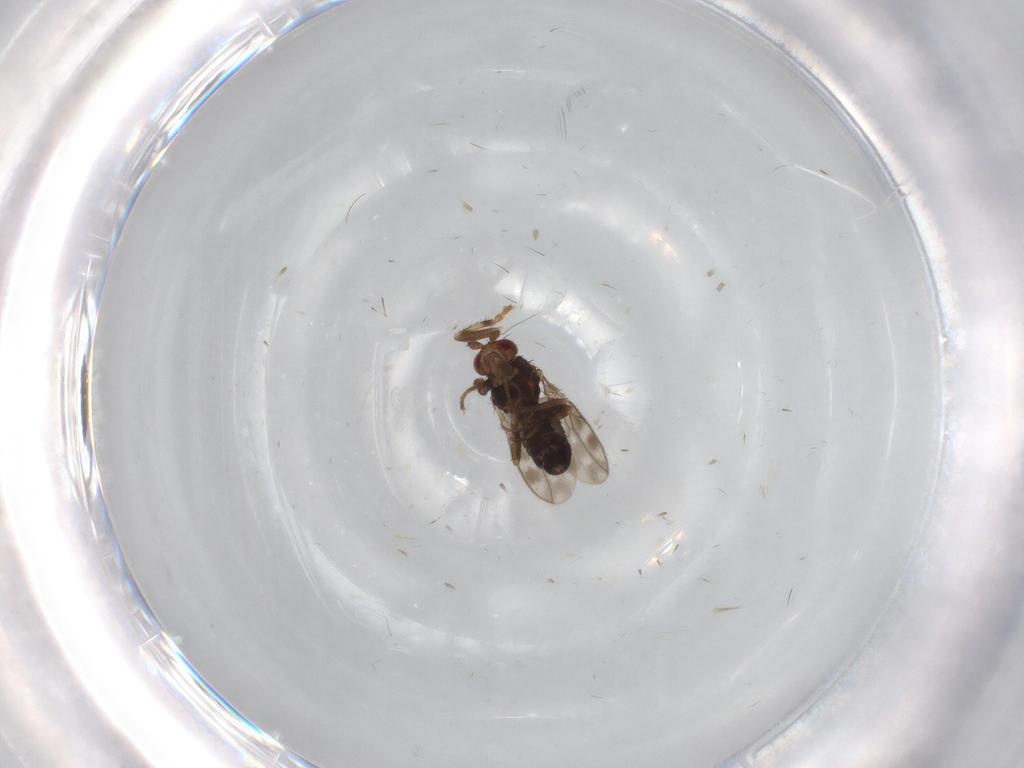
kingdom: Animalia
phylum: Arthropoda
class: Insecta
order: Diptera
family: Sphaeroceridae
